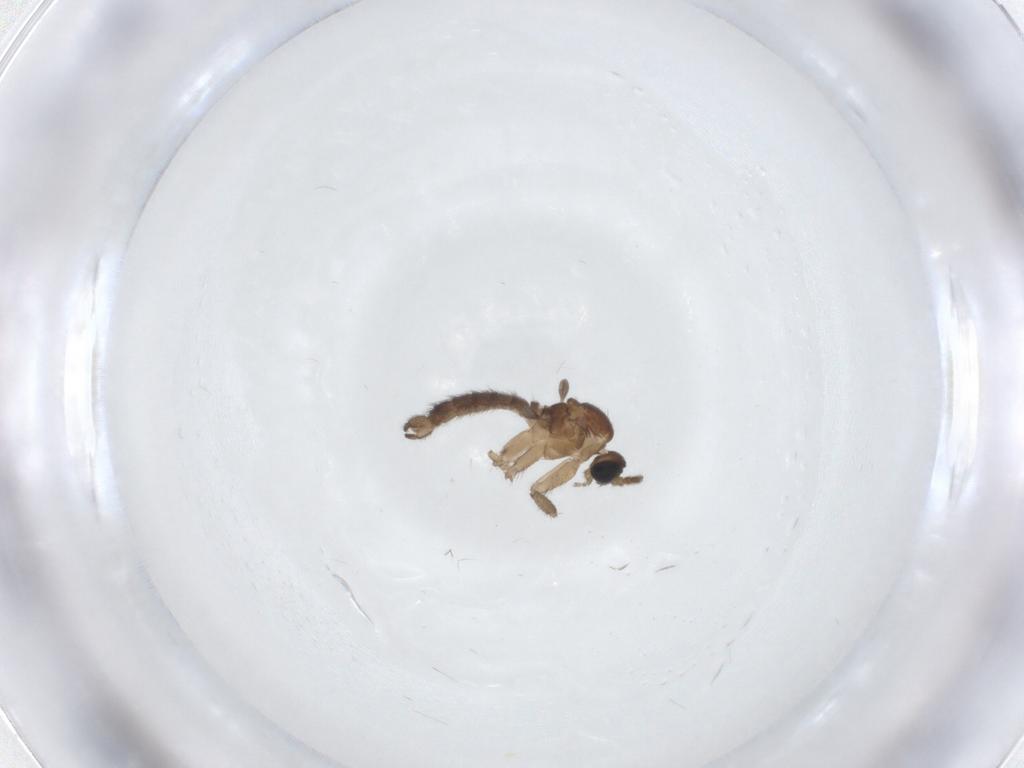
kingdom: Animalia
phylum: Arthropoda
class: Insecta
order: Diptera
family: Sciaridae
